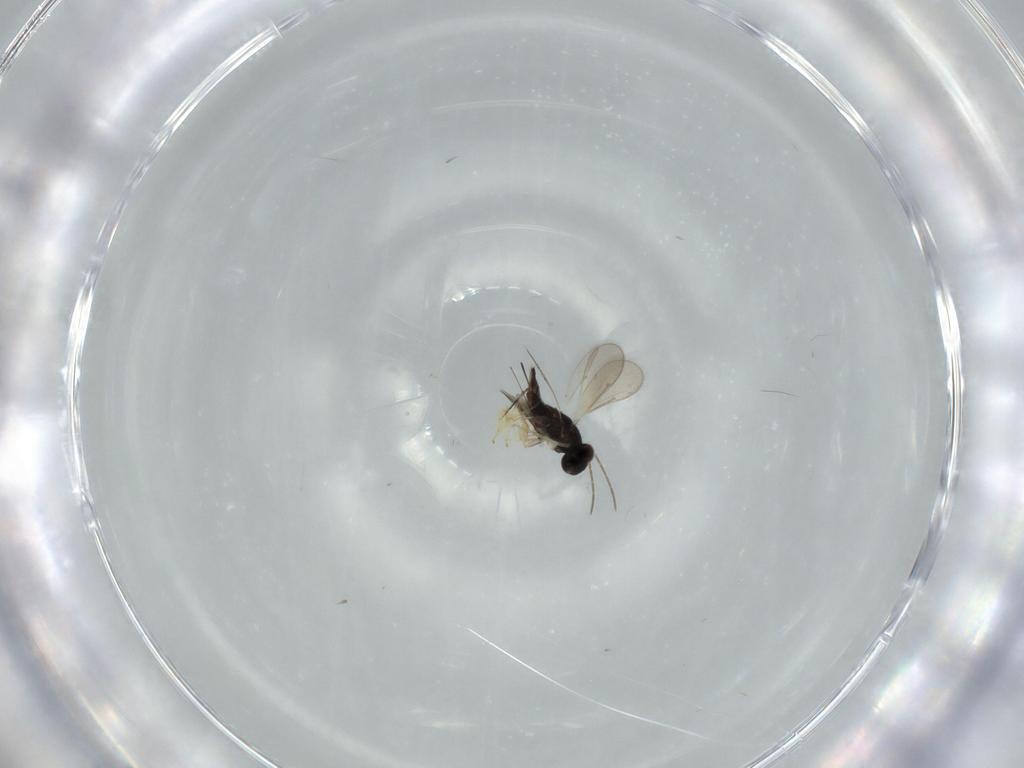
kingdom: Animalia
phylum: Arthropoda
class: Insecta
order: Hymenoptera
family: Pteromalidae
